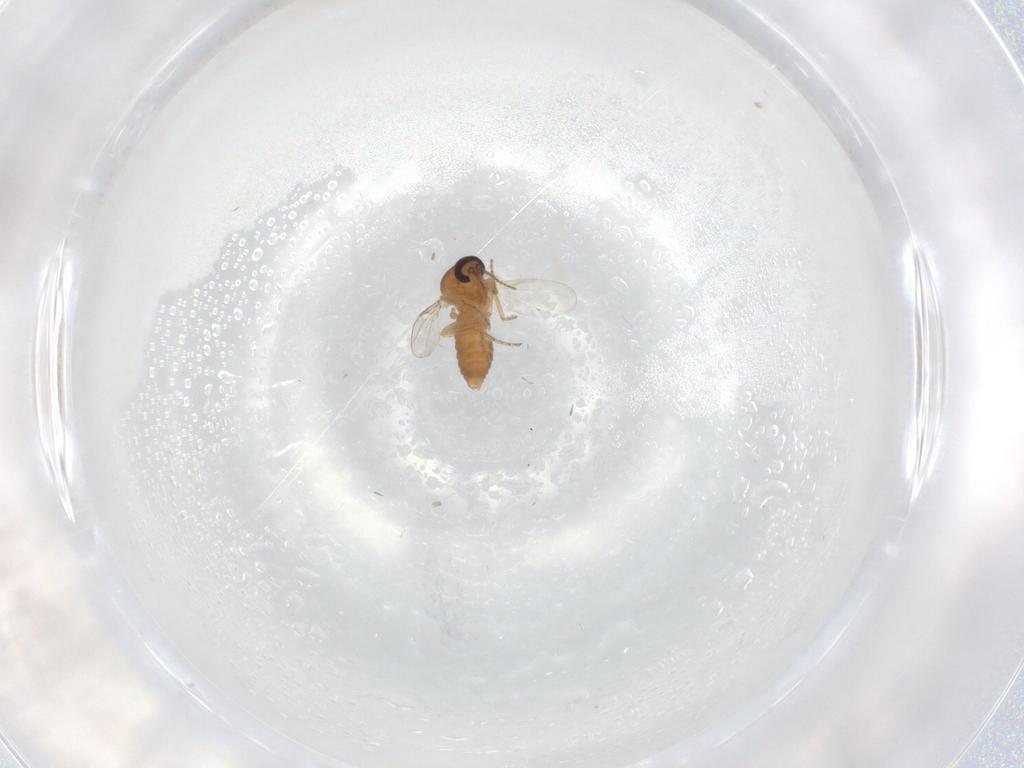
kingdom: Animalia
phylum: Arthropoda
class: Insecta
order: Diptera
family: Ceratopogonidae
